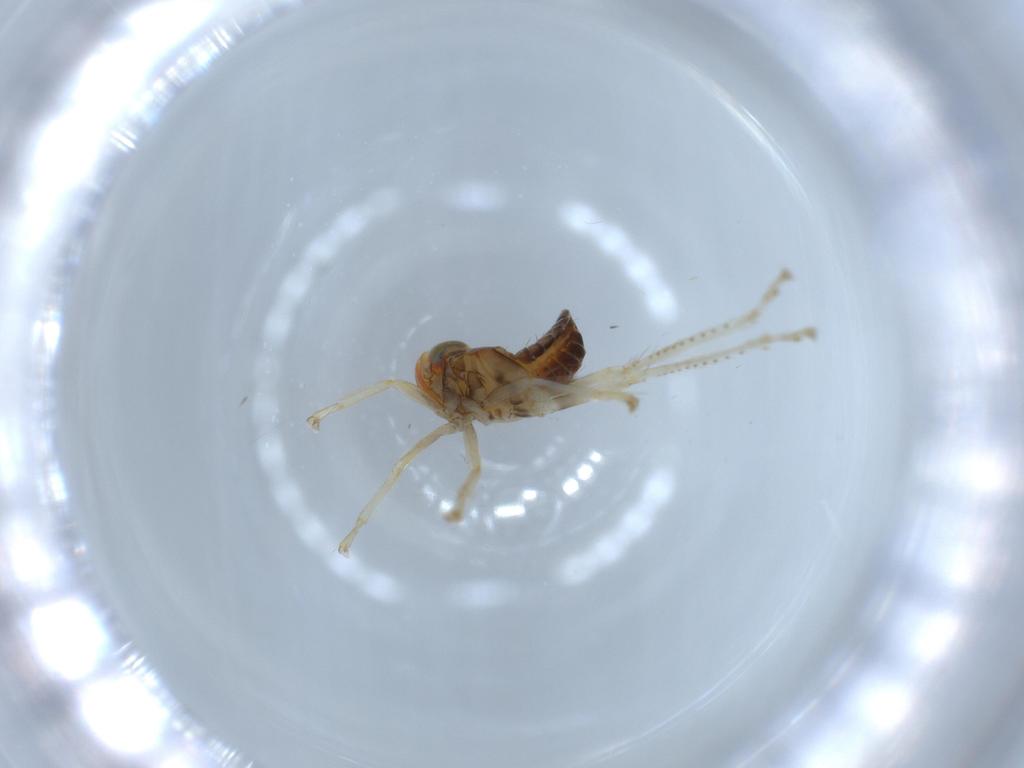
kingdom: Animalia
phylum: Arthropoda
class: Insecta
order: Hemiptera
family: Cicadellidae
